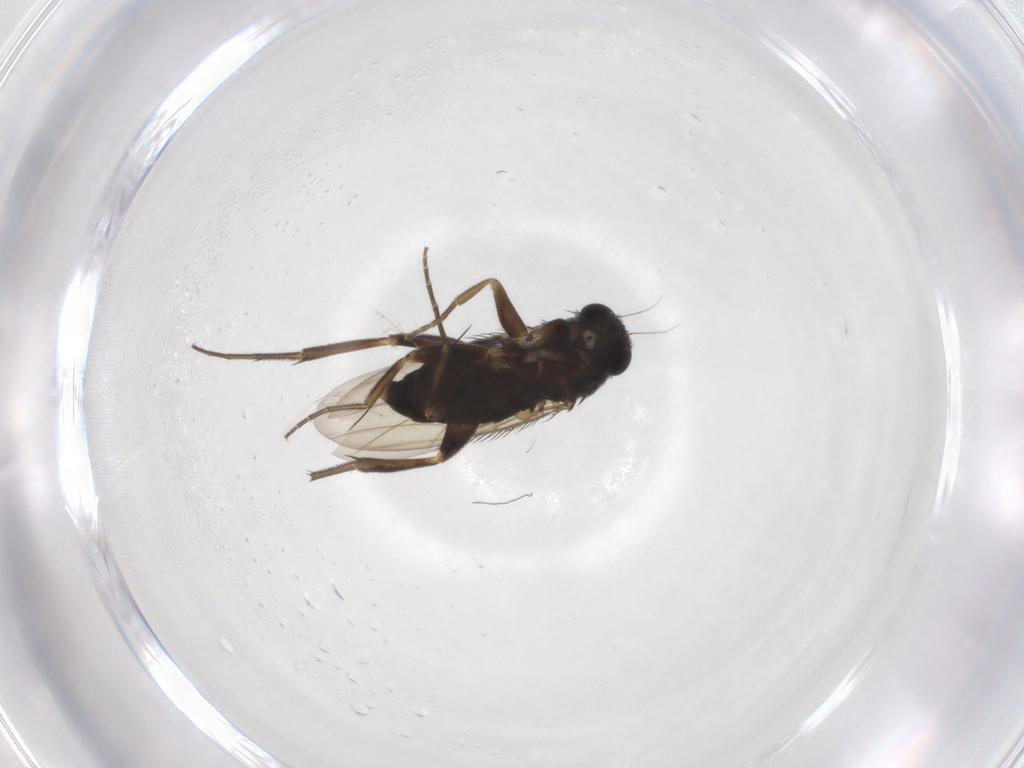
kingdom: Animalia
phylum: Arthropoda
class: Insecta
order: Diptera
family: Phoridae
